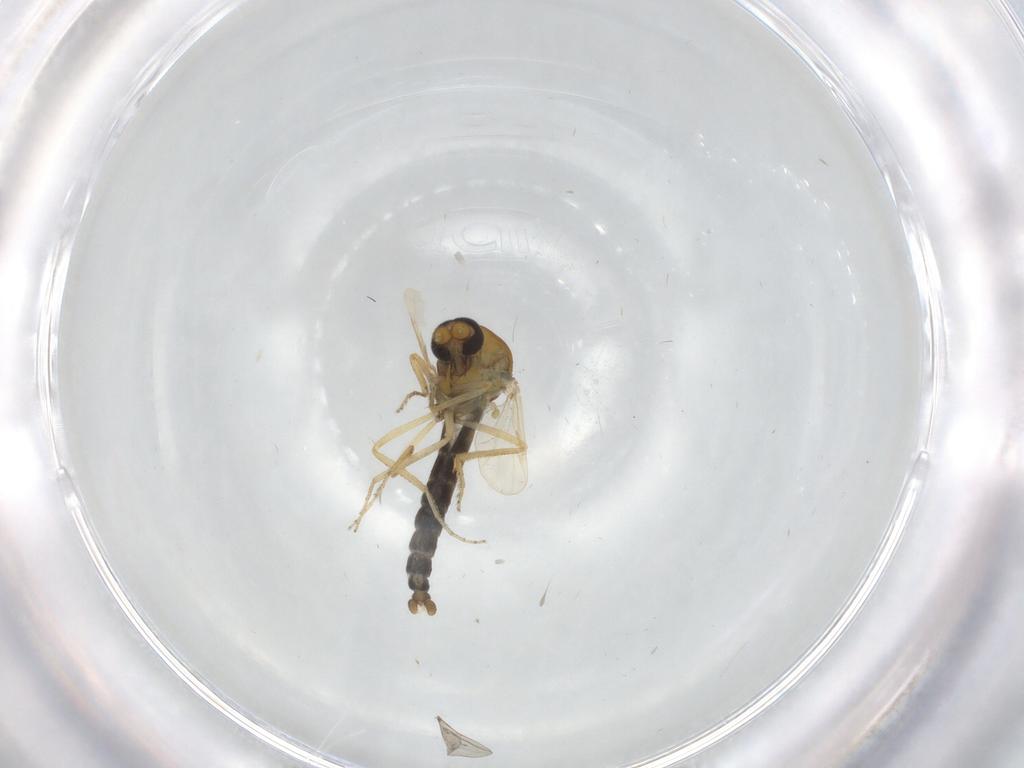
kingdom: Animalia
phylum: Arthropoda
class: Insecta
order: Diptera
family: Cecidomyiidae
